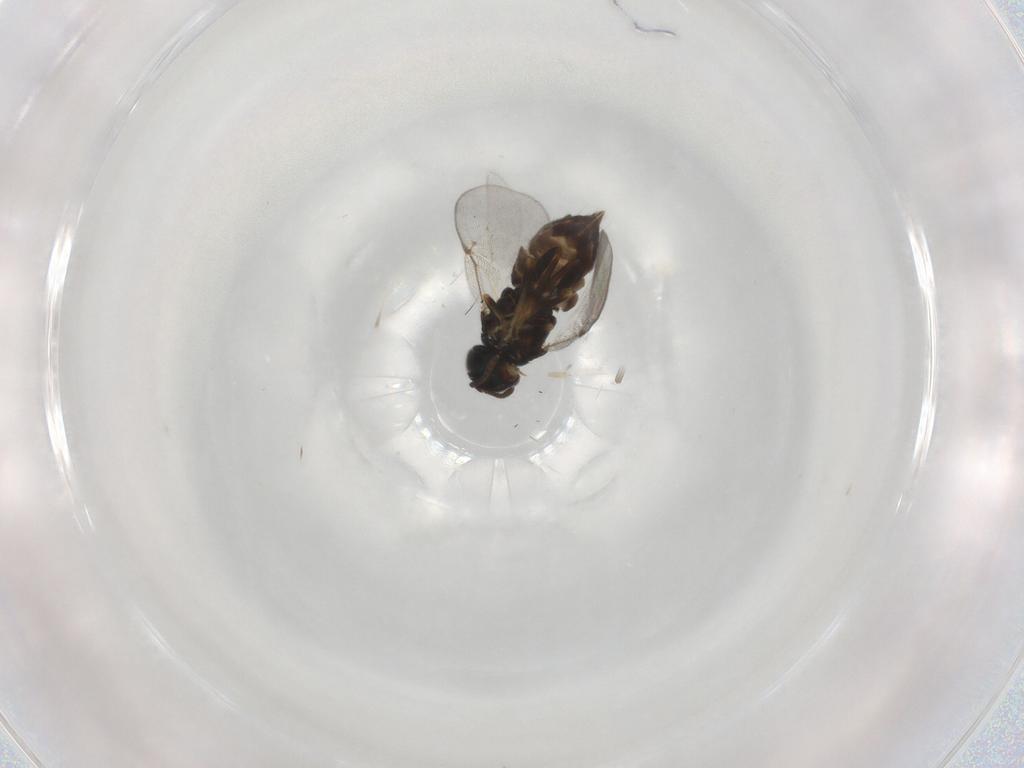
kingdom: Animalia
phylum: Arthropoda
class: Insecta
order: Hymenoptera
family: Encyrtidae
